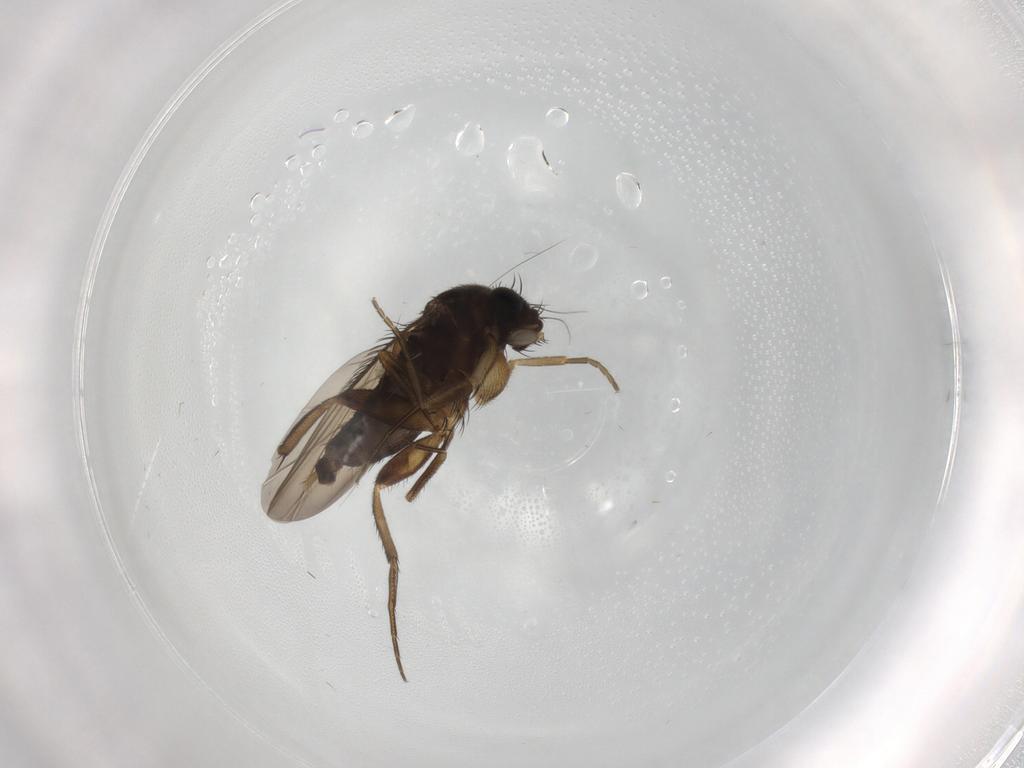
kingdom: Animalia
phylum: Arthropoda
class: Insecta
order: Diptera
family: Phoridae
